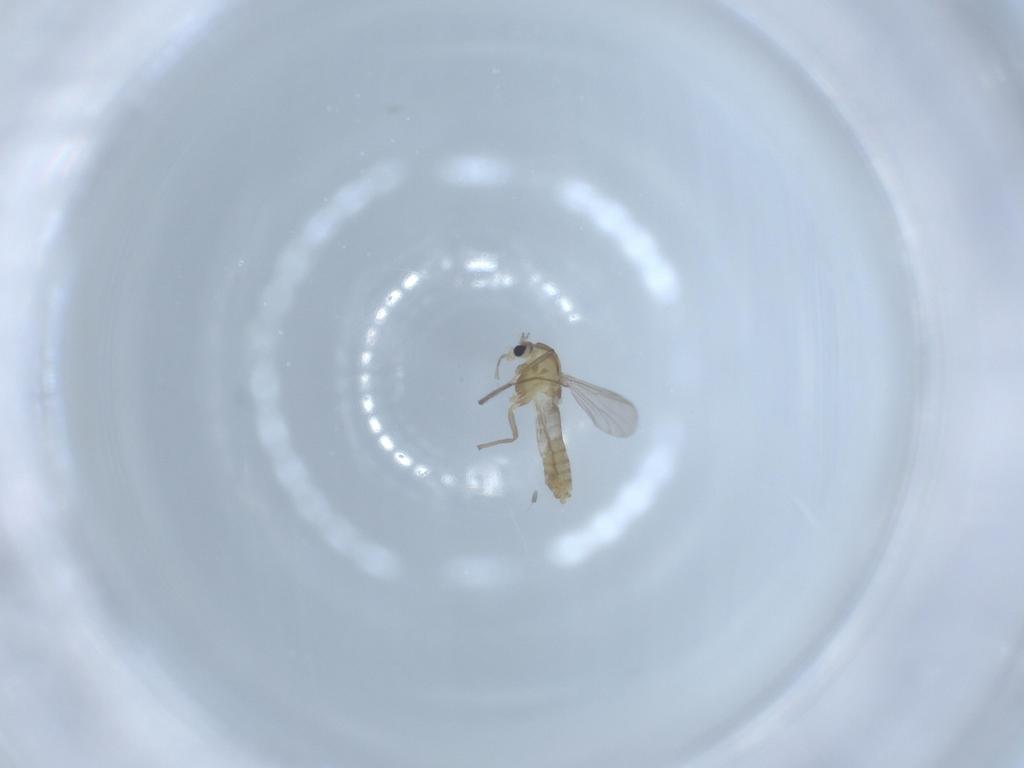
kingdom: Animalia
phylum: Arthropoda
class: Insecta
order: Diptera
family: Chironomidae
